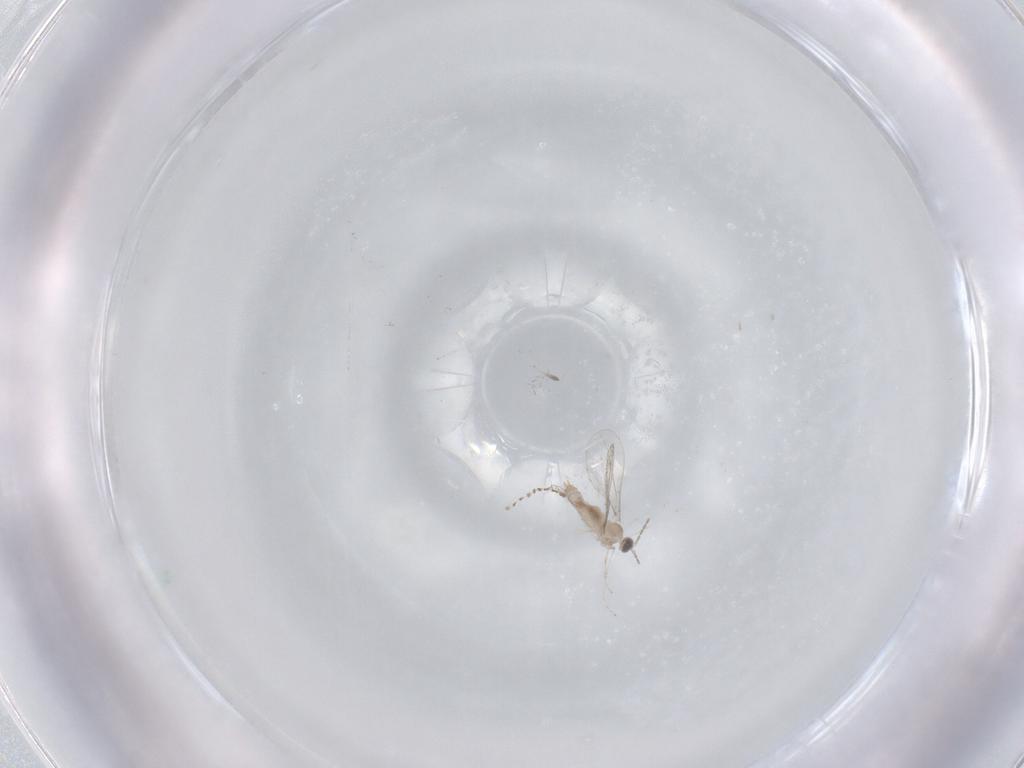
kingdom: Animalia
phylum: Arthropoda
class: Insecta
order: Diptera
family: Cecidomyiidae
